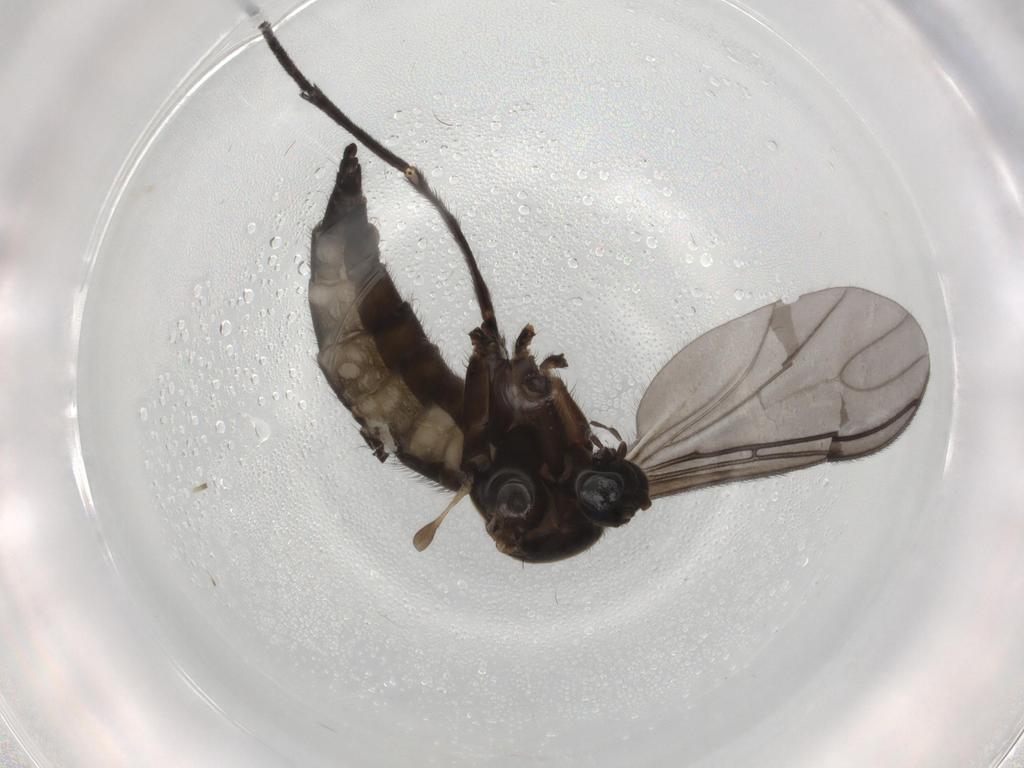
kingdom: Animalia
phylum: Arthropoda
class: Insecta
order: Diptera
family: Sciaridae
